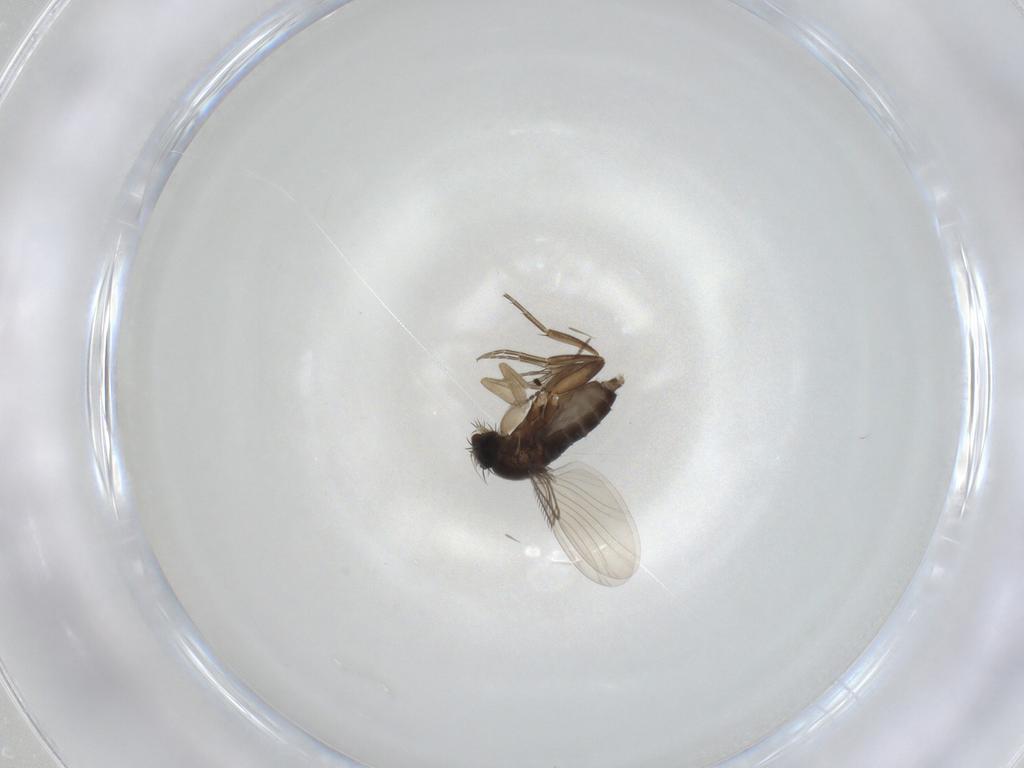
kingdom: Animalia
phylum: Arthropoda
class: Insecta
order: Diptera
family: Phoridae
